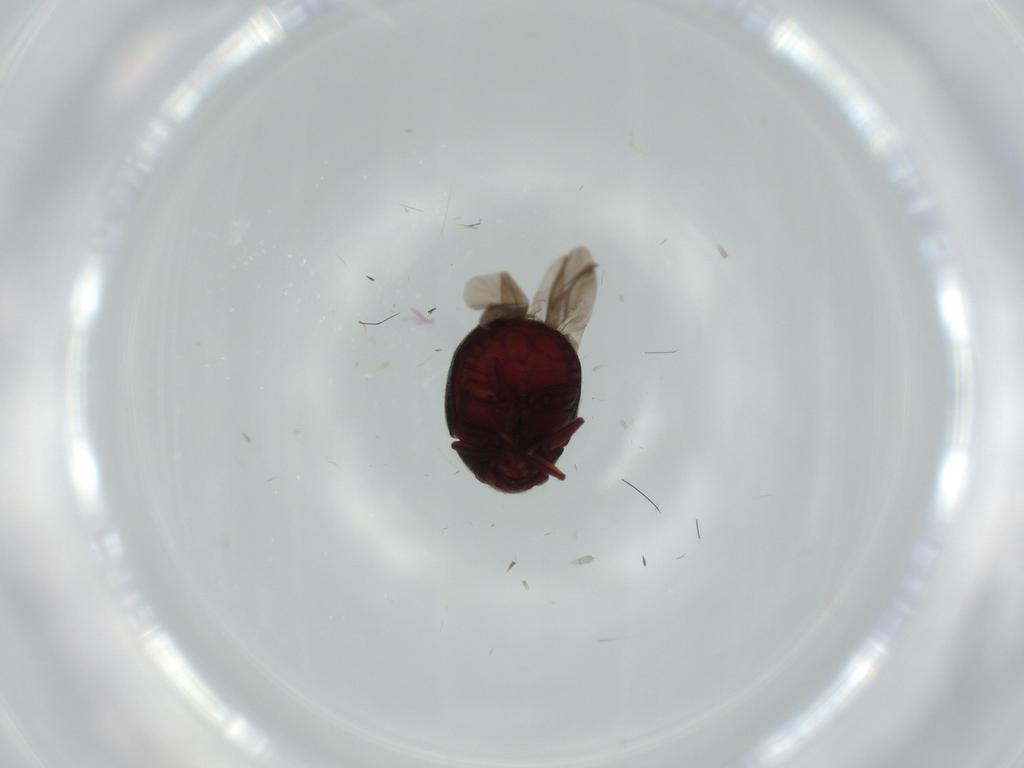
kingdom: Animalia
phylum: Arthropoda
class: Insecta
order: Coleoptera
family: Ptinidae
